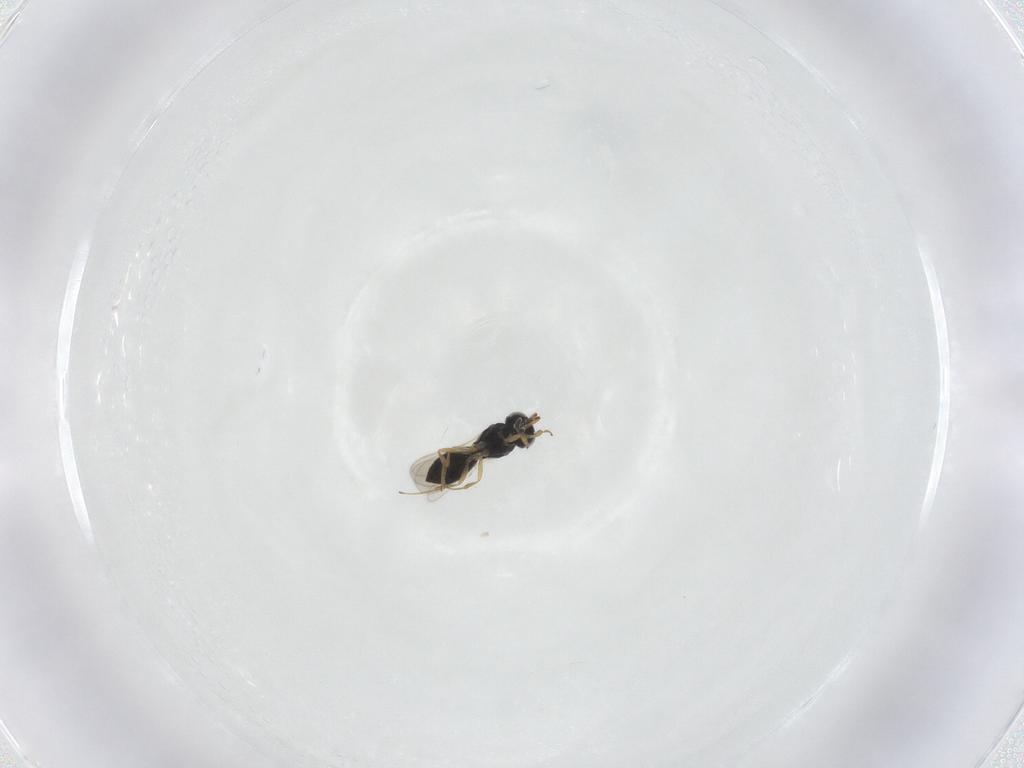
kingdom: Animalia
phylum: Arthropoda
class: Insecta
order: Hymenoptera
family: Scelionidae
